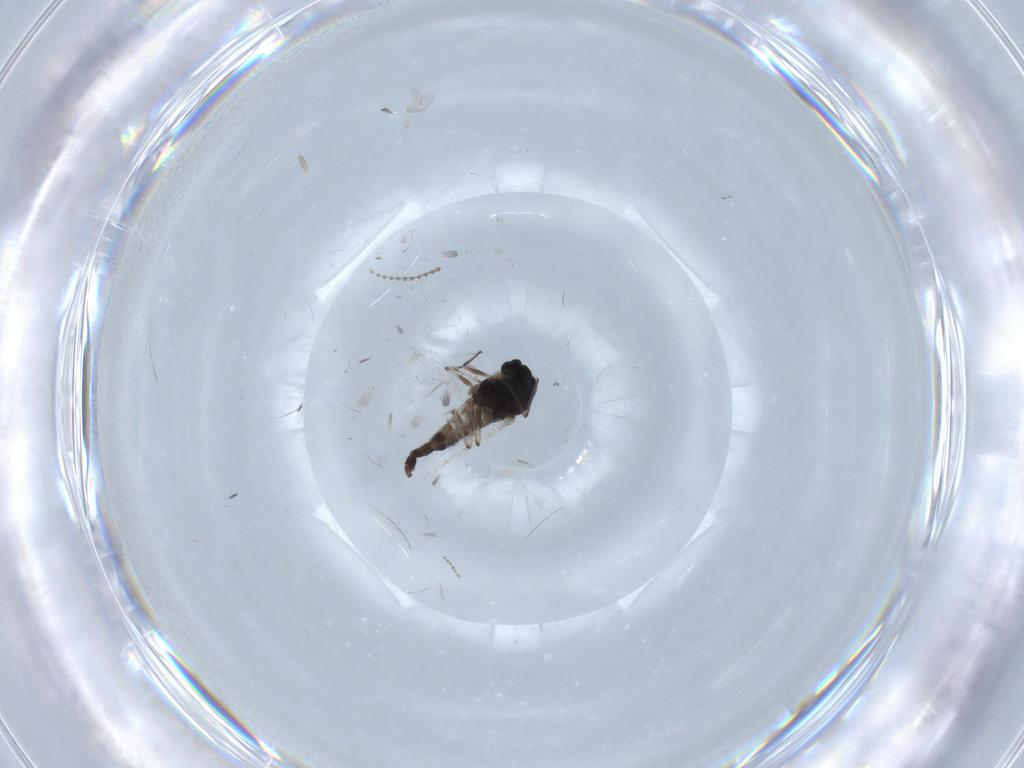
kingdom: Animalia
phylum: Arthropoda
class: Insecta
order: Diptera
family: Chironomidae
